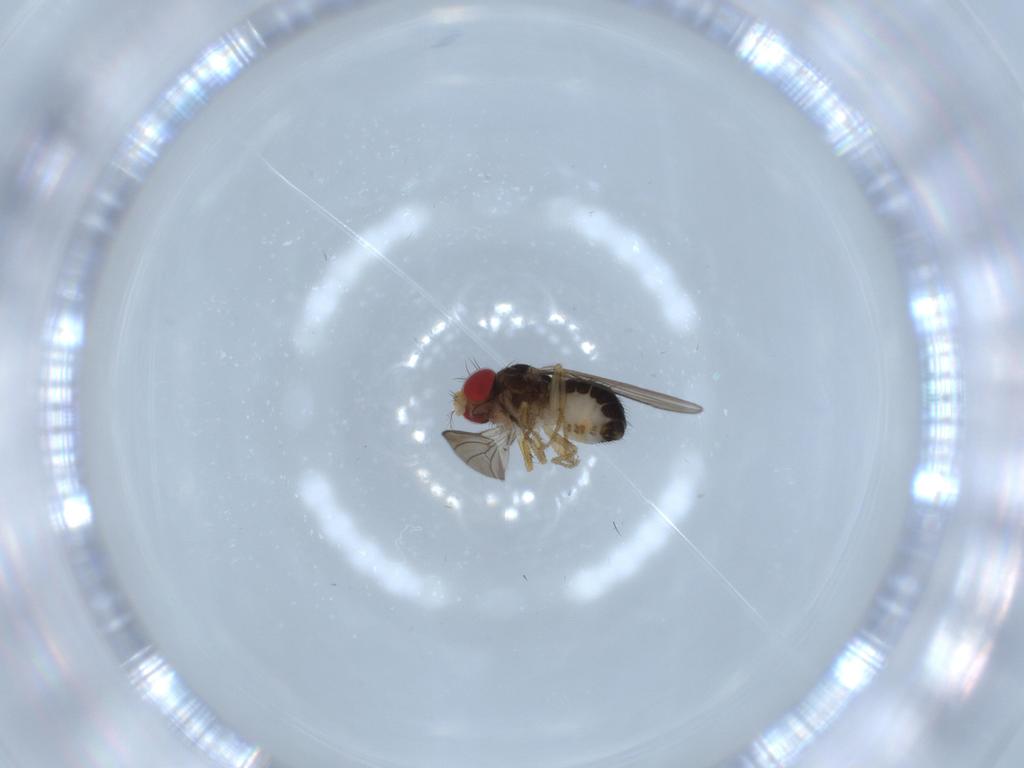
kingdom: Animalia
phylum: Arthropoda
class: Insecta
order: Diptera
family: Drosophilidae
